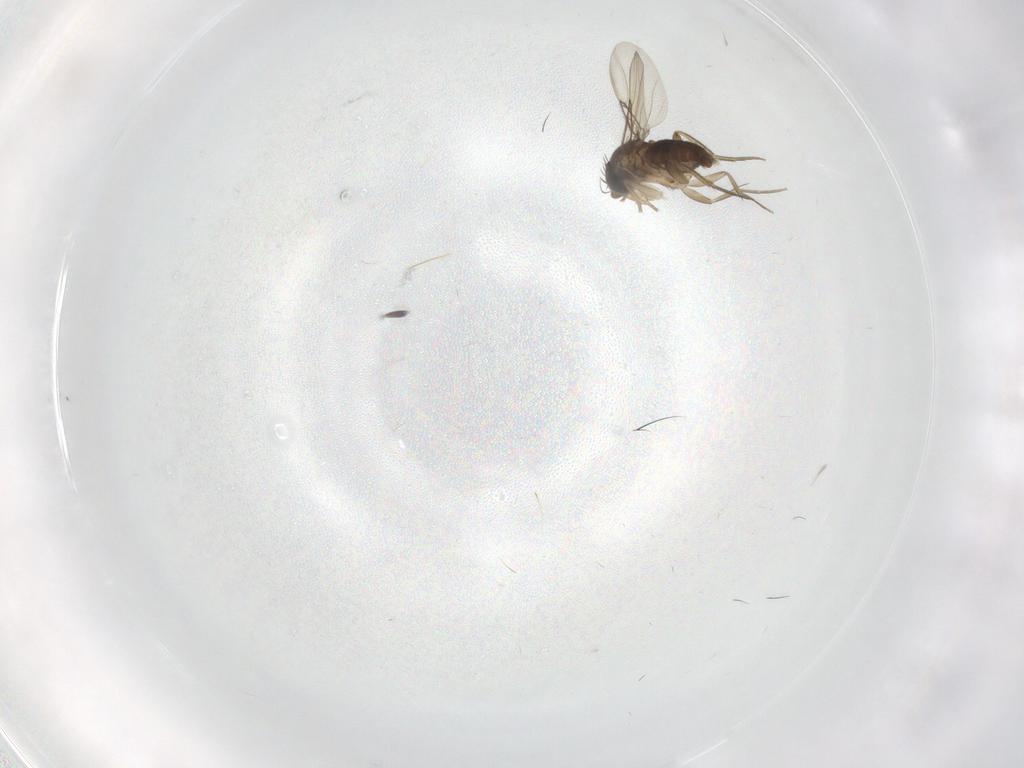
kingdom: Animalia
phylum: Arthropoda
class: Insecta
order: Diptera
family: Phoridae
